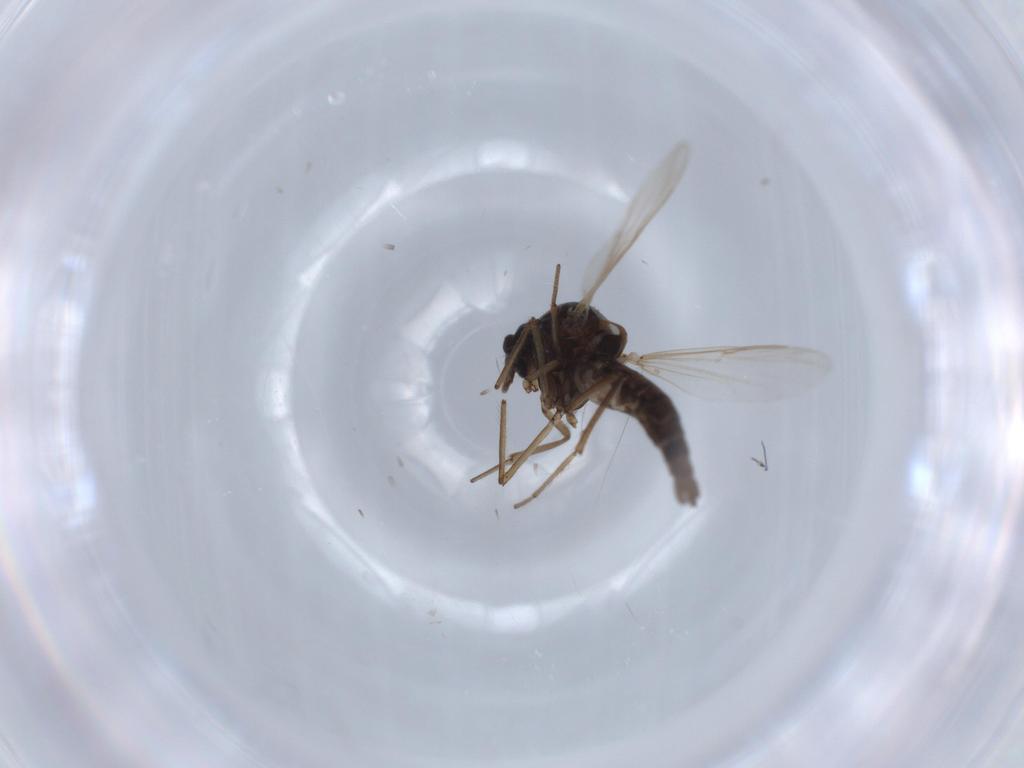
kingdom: Animalia
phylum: Arthropoda
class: Insecta
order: Diptera
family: Ceratopogonidae
